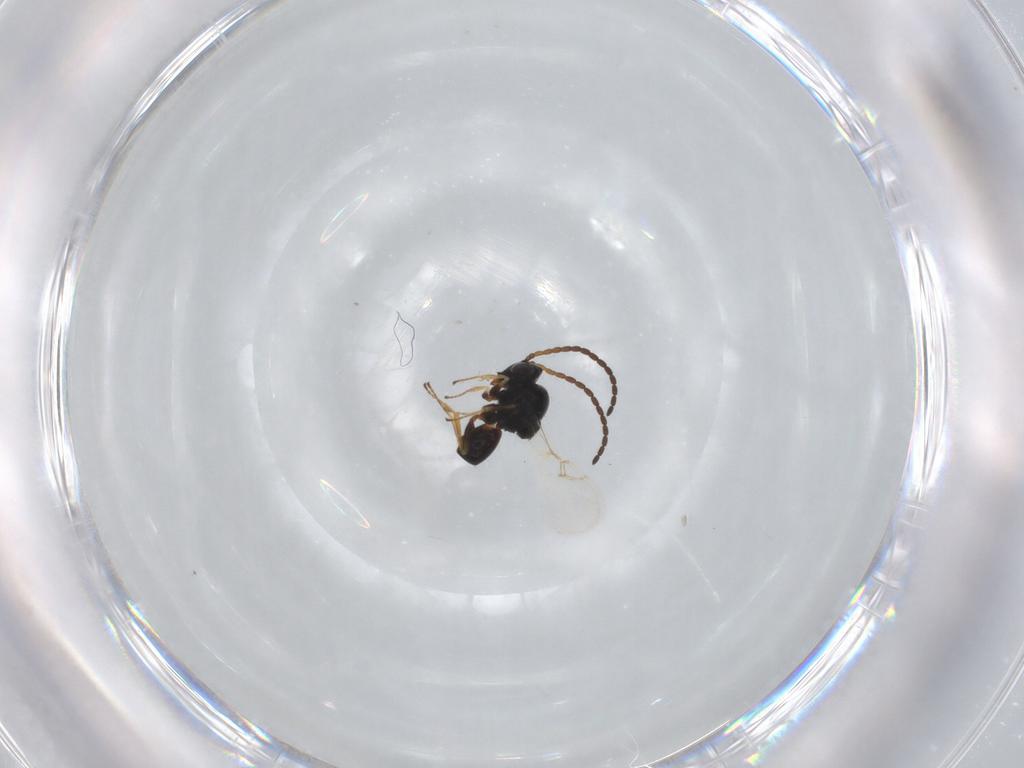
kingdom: Animalia
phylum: Arthropoda
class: Insecta
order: Hymenoptera
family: Figitidae
